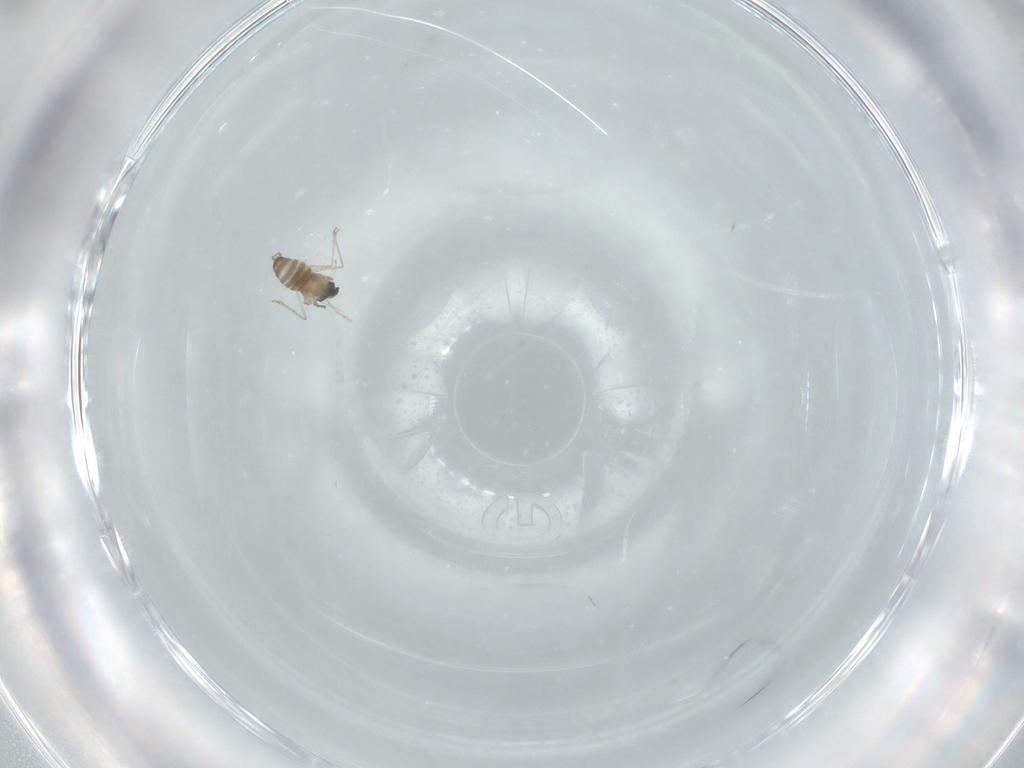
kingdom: Animalia
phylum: Arthropoda
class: Insecta
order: Diptera
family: Cecidomyiidae
